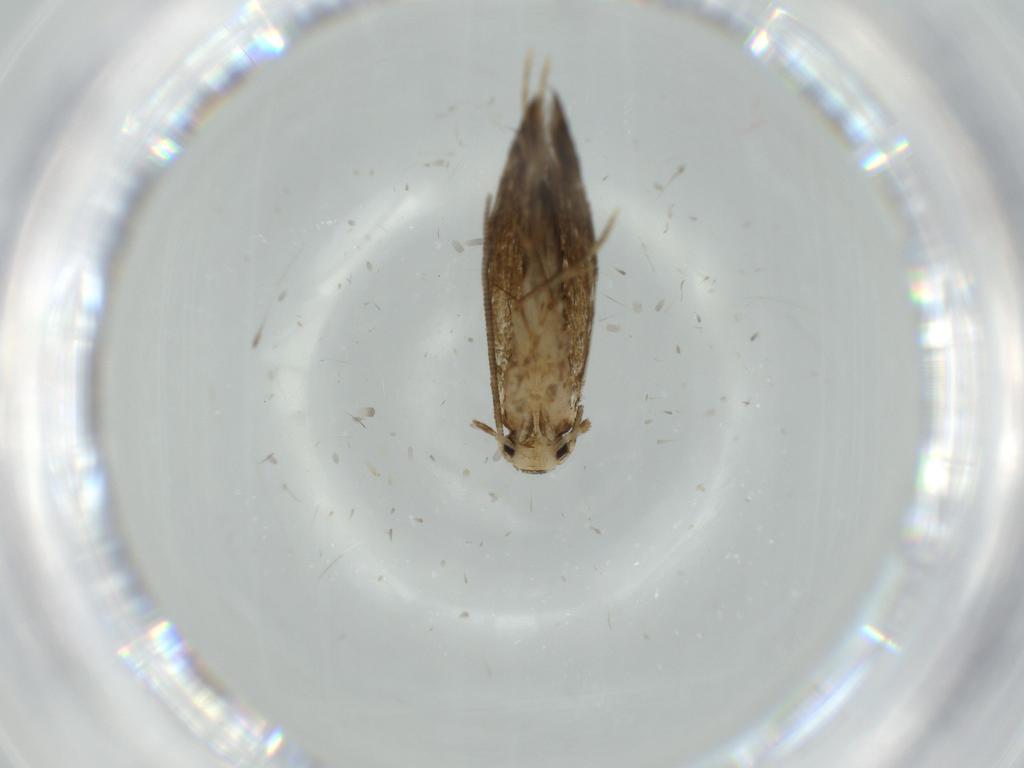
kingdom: Animalia
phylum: Arthropoda
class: Insecta
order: Lepidoptera
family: Tineidae
